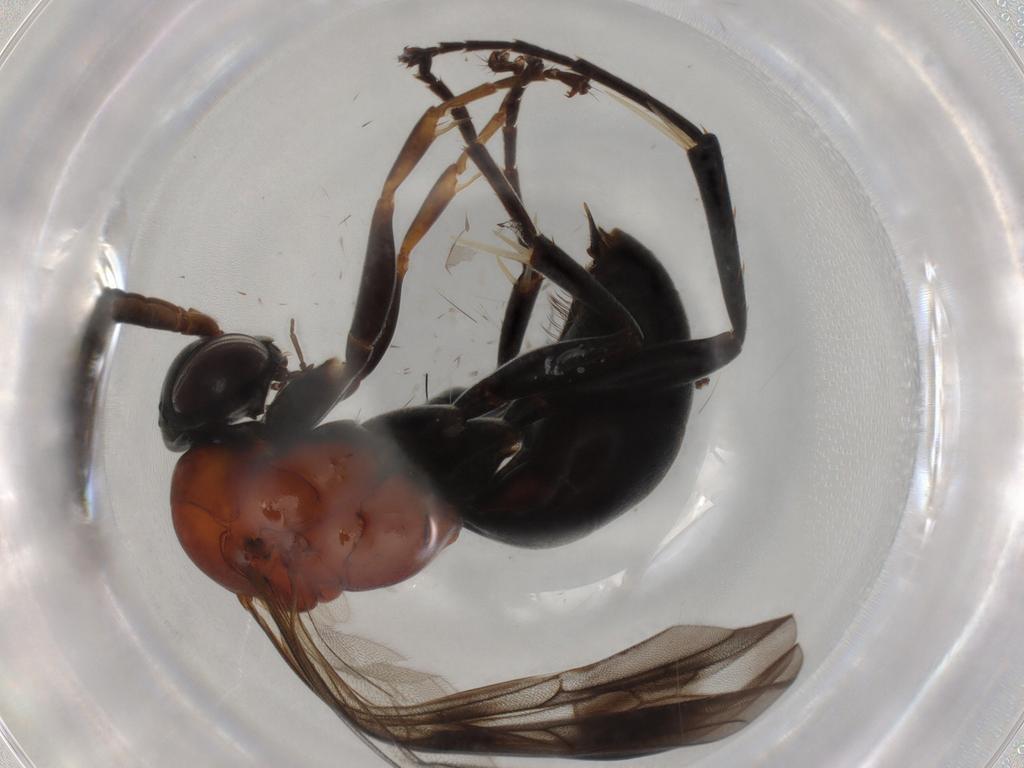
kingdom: Animalia
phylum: Arthropoda
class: Insecta
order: Hymenoptera
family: Pompilidae
